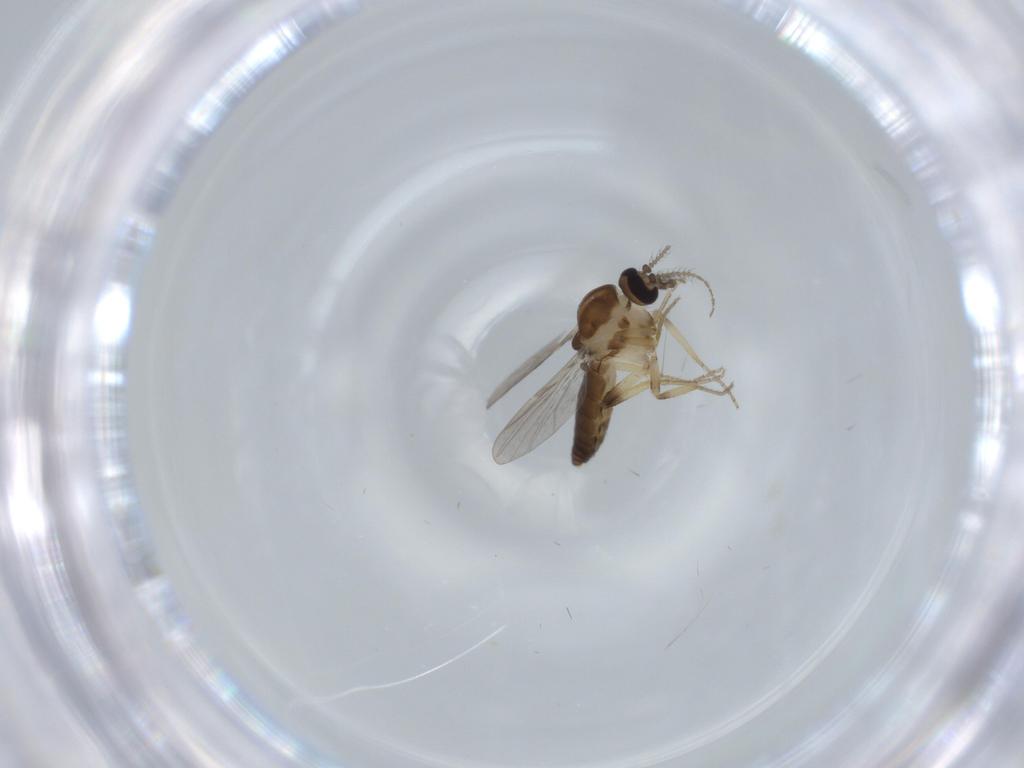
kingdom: Animalia
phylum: Arthropoda
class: Insecta
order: Diptera
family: Ceratopogonidae
